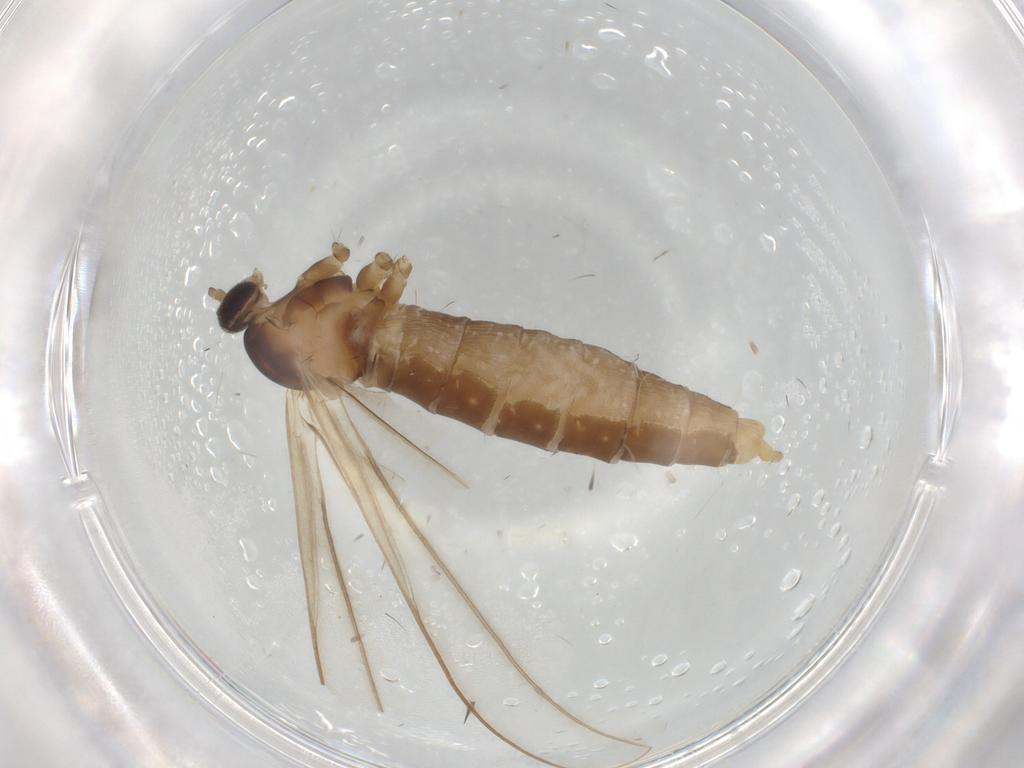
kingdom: Animalia
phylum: Arthropoda
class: Insecta
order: Diptera
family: Cecidomyiidae
